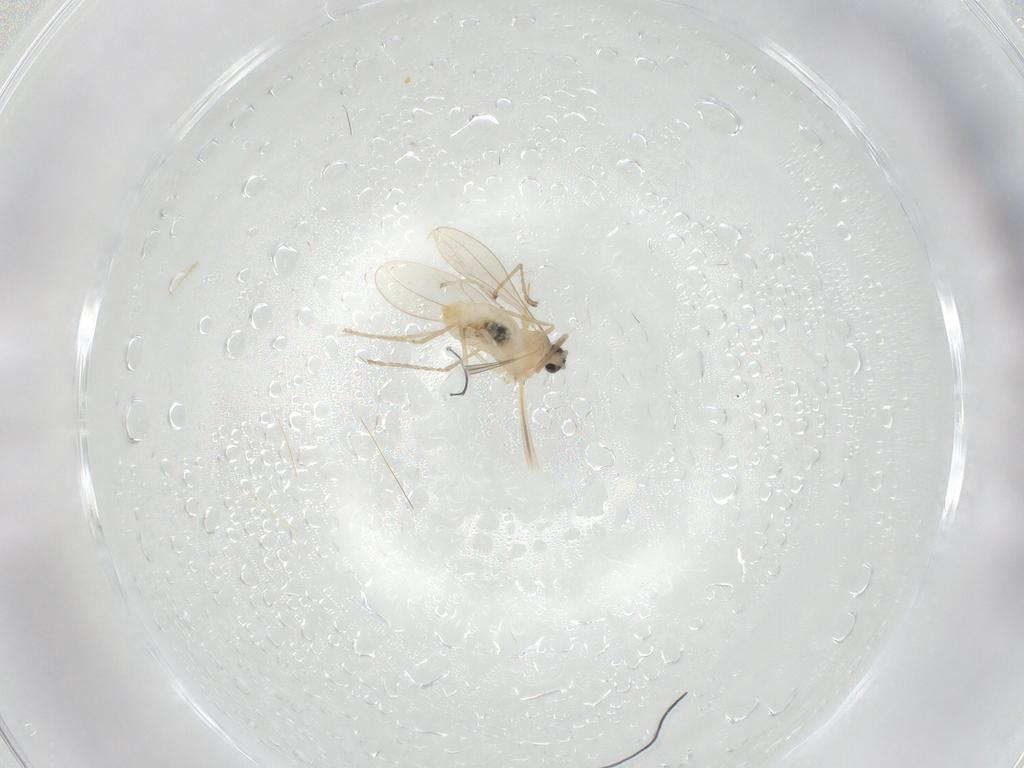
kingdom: Animalia
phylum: Arthropoda
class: Insecta
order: Diptera
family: Cecidomyiidae
